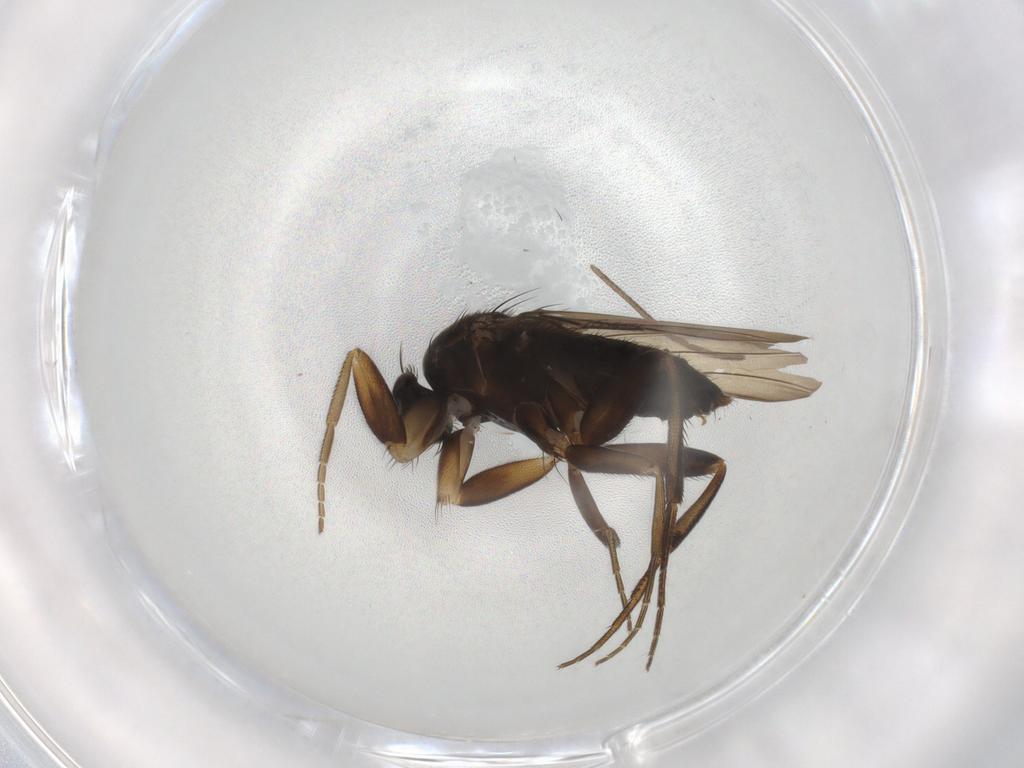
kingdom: Animalia
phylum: Arthropoda
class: Insecta
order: Diptera
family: Phoridae
